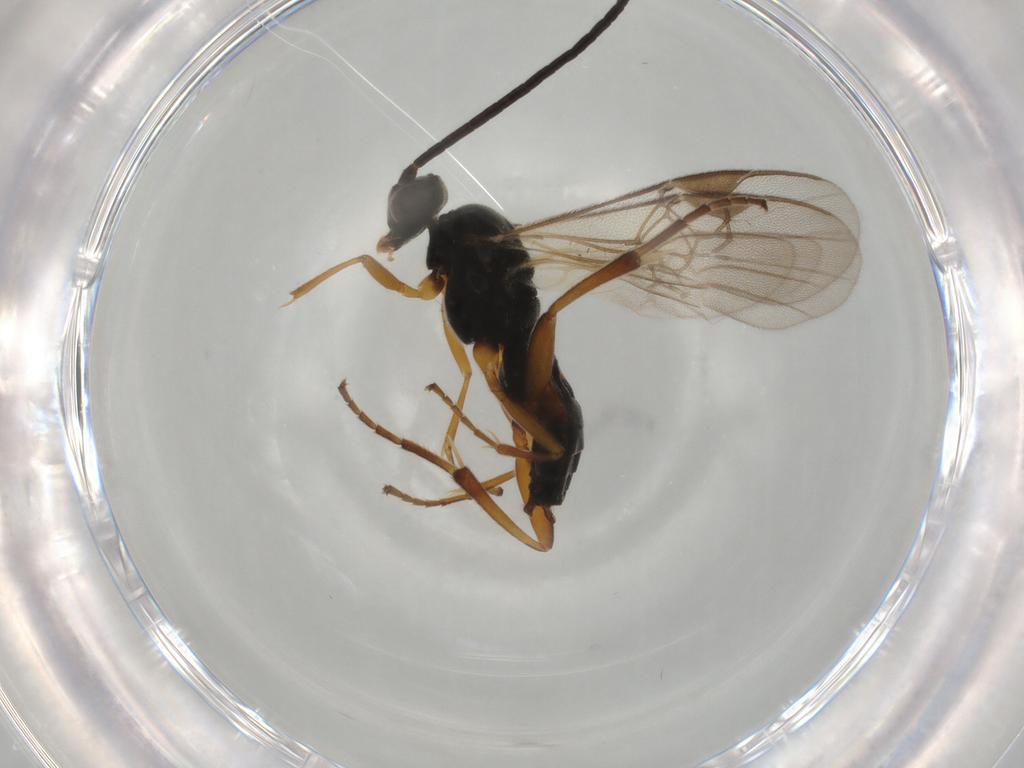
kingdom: Animalia
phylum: Arthropoda
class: Insecta
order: Hymenoptera
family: Braconidae
